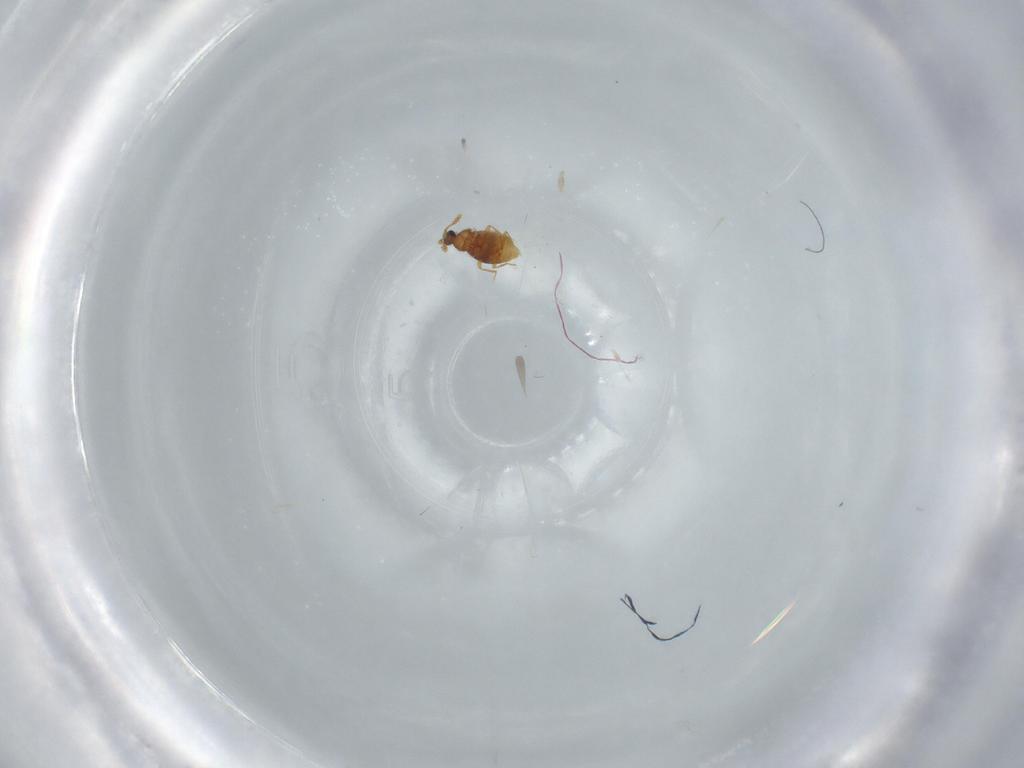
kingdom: Animalia
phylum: Arthropoda
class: Insecta
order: Coleoptera
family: Staphylinidae
